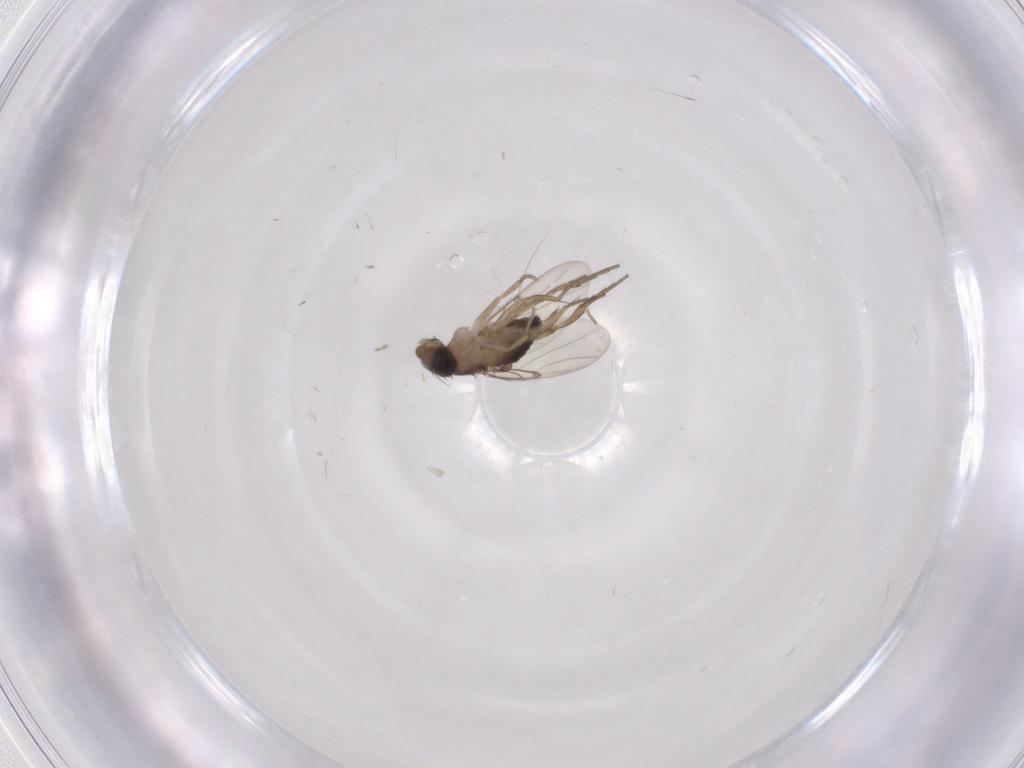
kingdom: Animalia
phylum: Arthropoda
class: Insecta
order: Diptera
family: Phoridae
